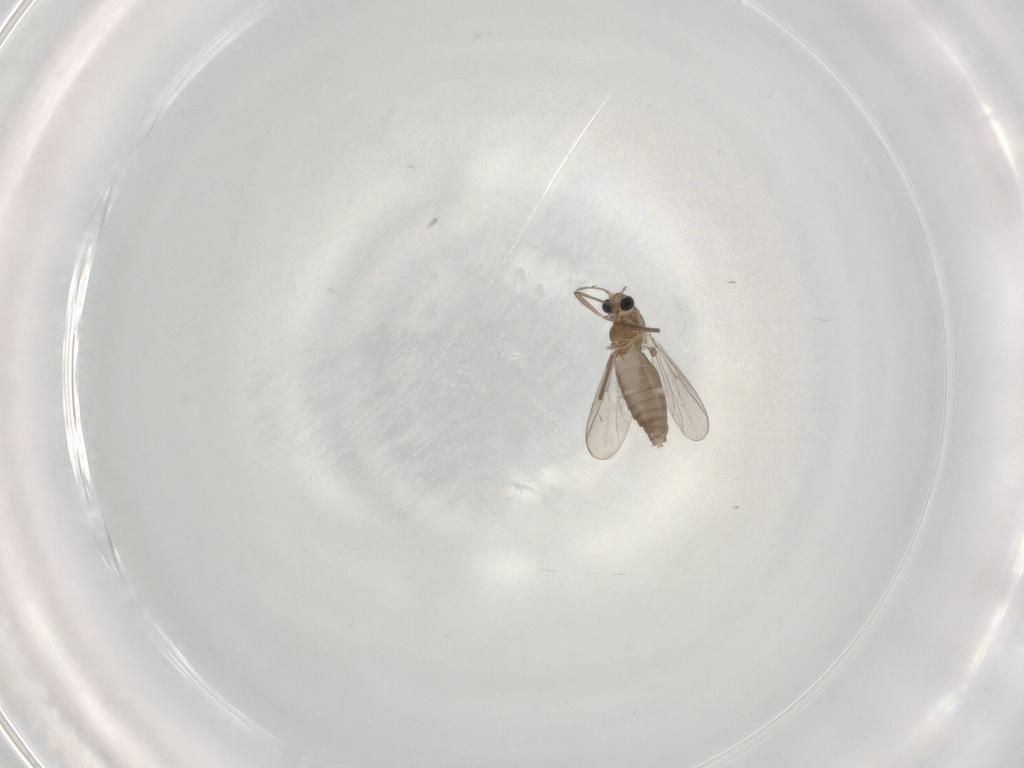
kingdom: Animalia
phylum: Arthropoda
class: Insecta
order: Diptera
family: Chironomidae
